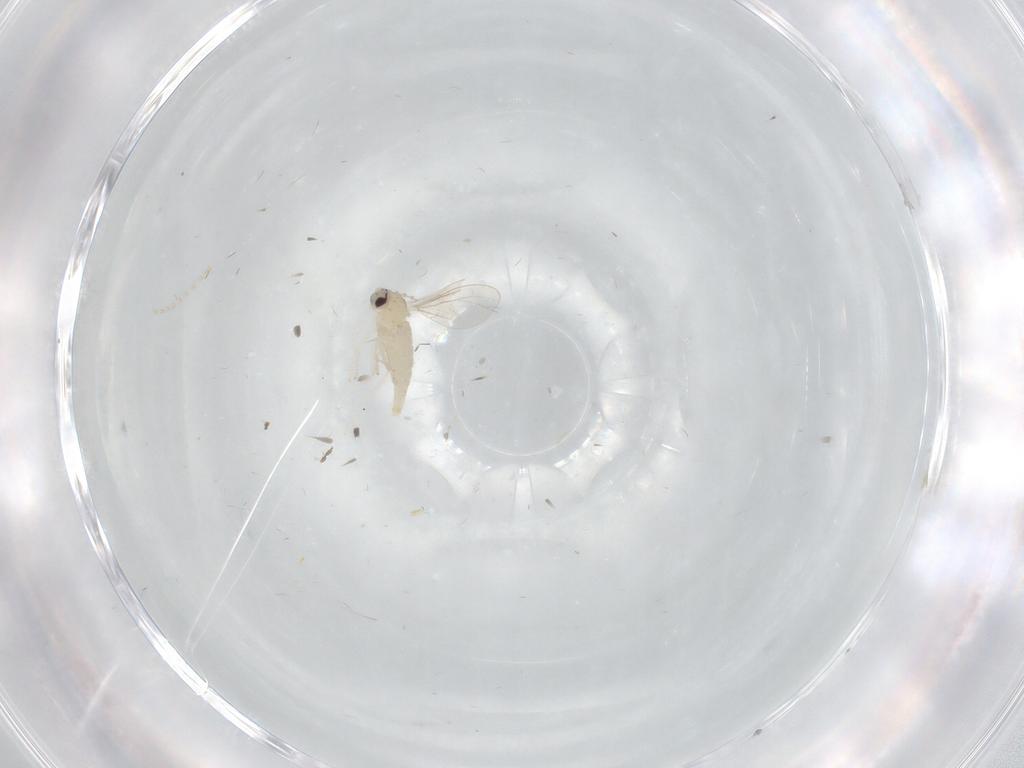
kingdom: Animalia
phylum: Arthropoda
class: Insecta
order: Diptera
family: Cecidomyiidae
